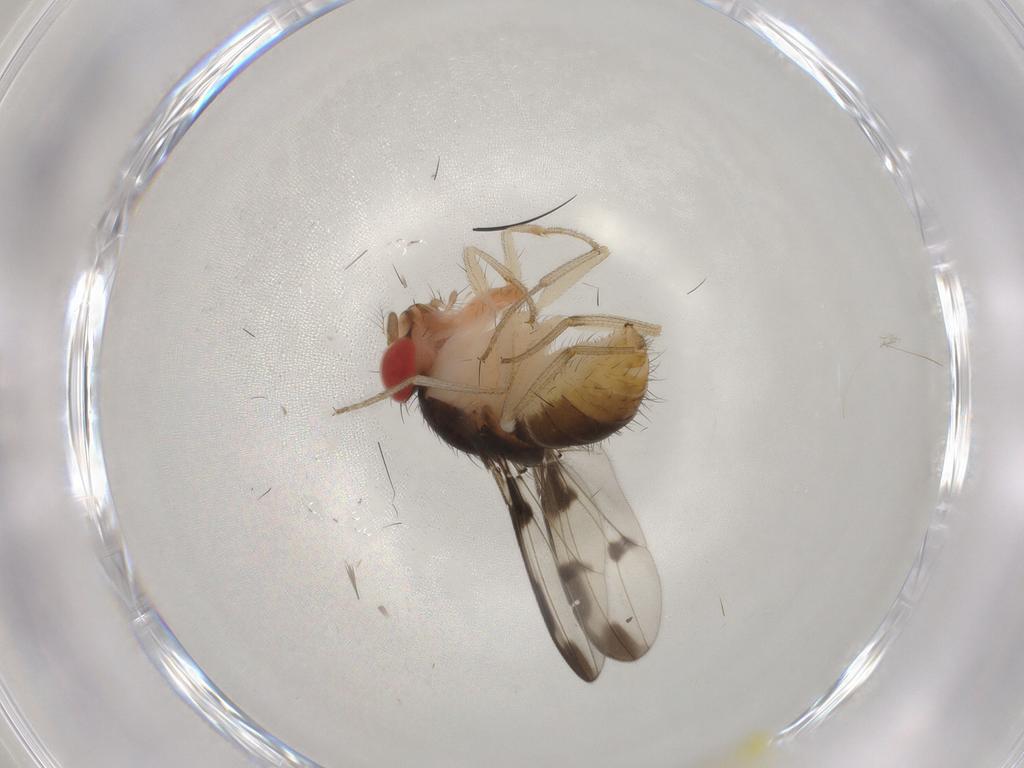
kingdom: Animalia
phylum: Arthropoda
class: Insecta
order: Diptera
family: Drosophilidae
